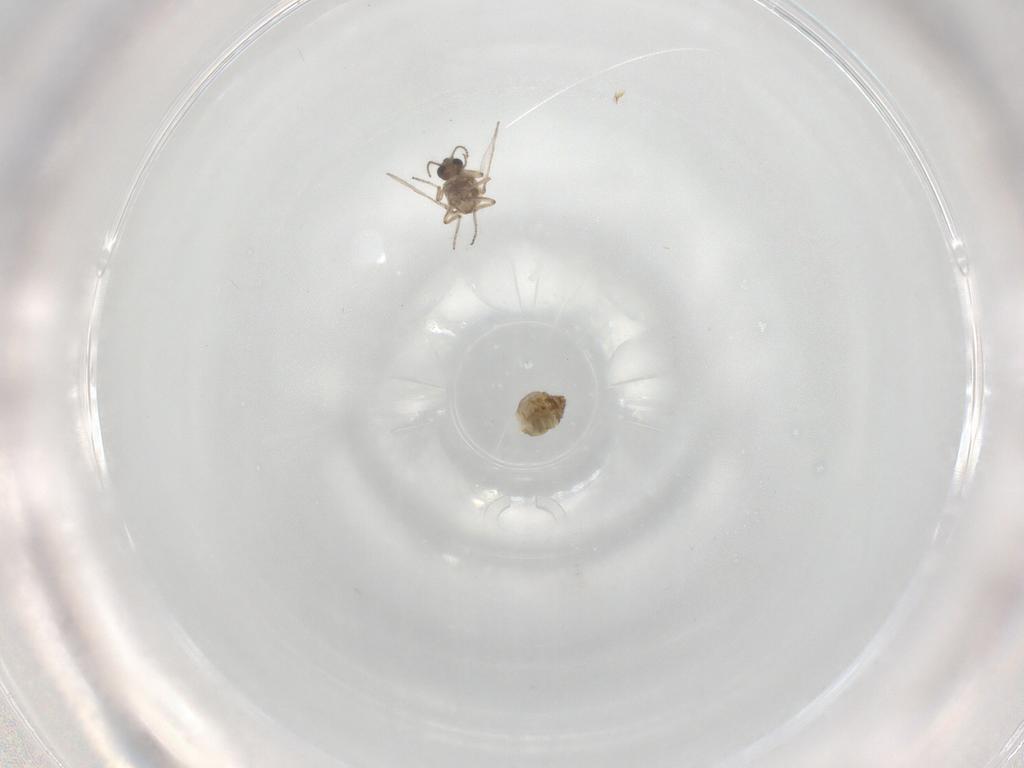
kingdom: Animalia
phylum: Arthropoda
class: Insecta
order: Diptera
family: Ceratopogonidae
